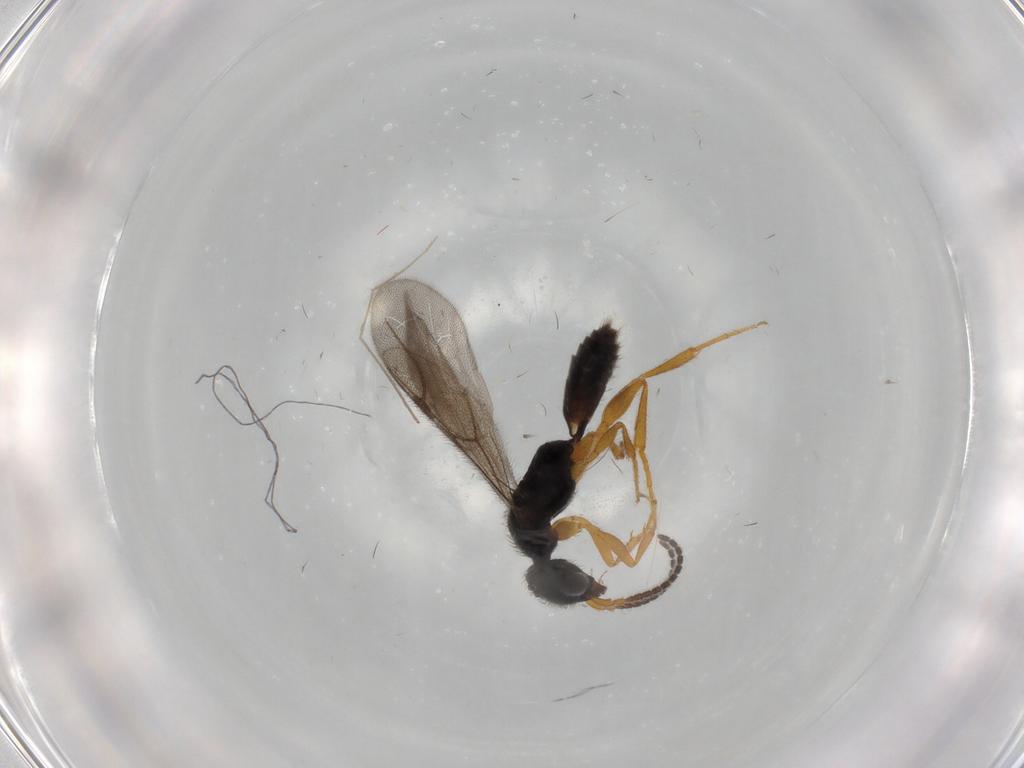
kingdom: Animalia
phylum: Arthropoda
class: Insecta
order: Hymenoptera
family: Bethylidae
